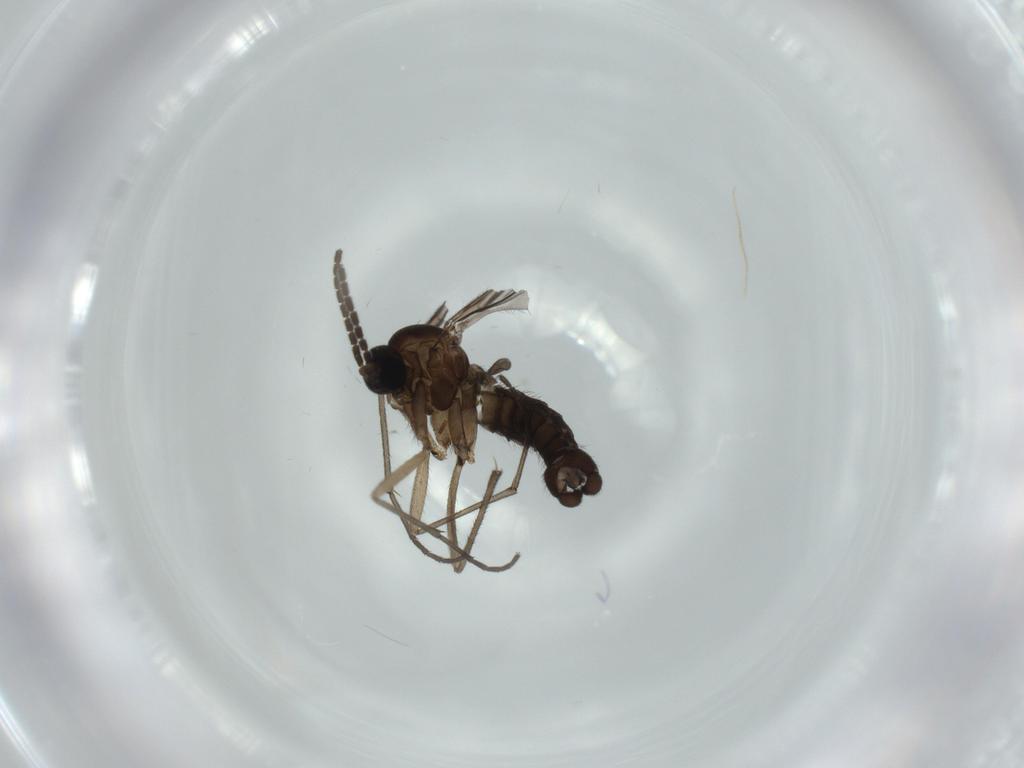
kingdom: Animalia
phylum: Arthropoda
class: Insecta
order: Diptera
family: Sciaridae
